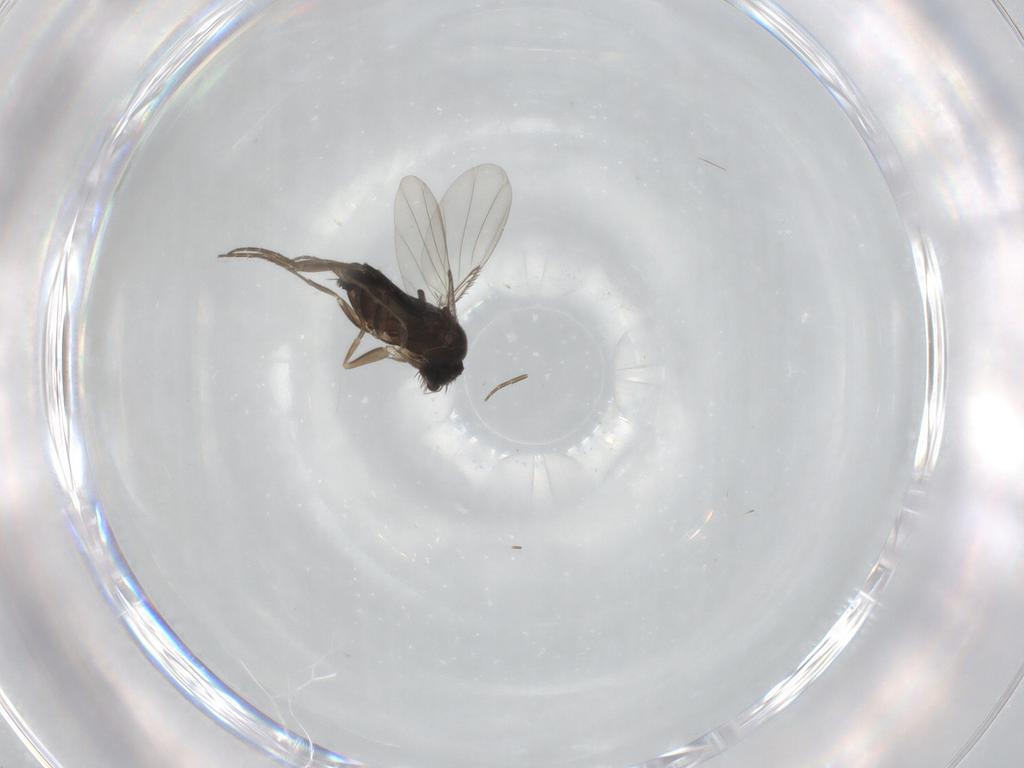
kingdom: Animalia
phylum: Arthropoda
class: Insecta
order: Diptera
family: Phoridae
